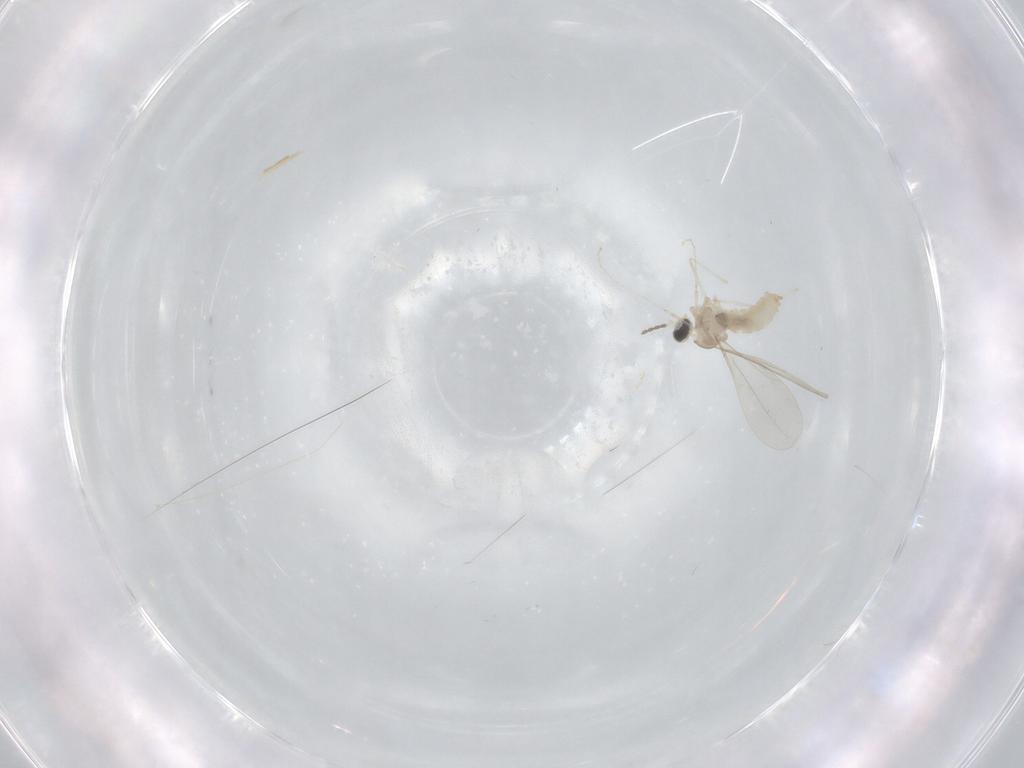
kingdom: Animalia
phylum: Arthropoda
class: Insecta
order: Diptera
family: Cecidomyiidae
